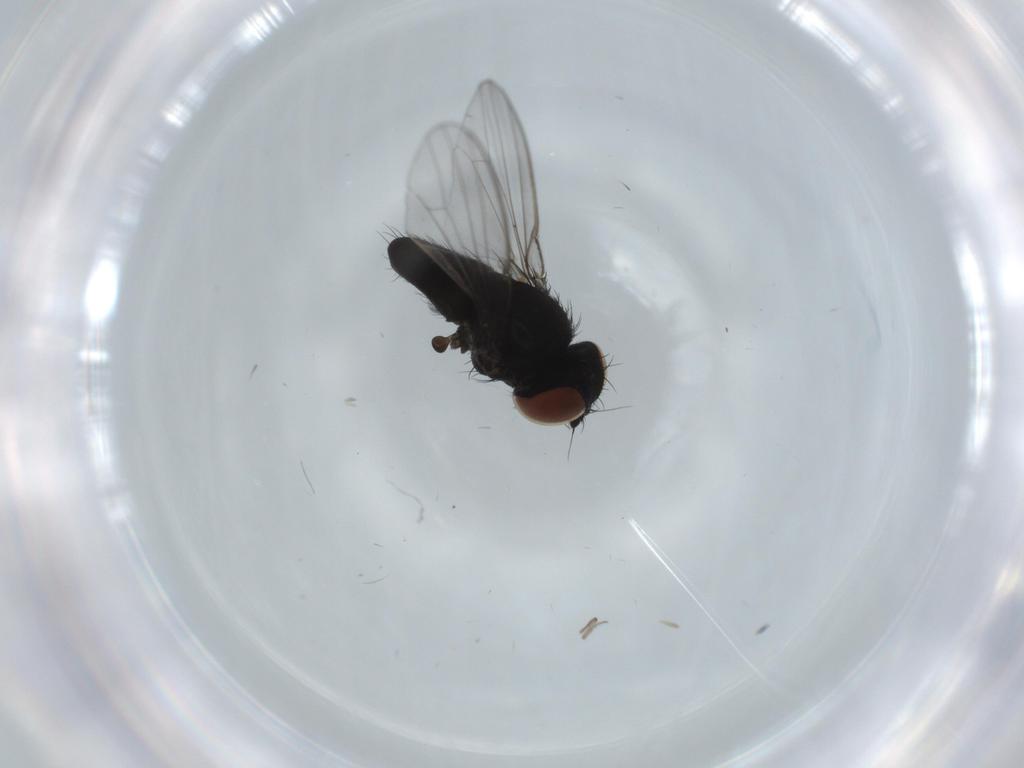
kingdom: Animalia
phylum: Arthropoda
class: Insecta
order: Diptera
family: Milichiidae
